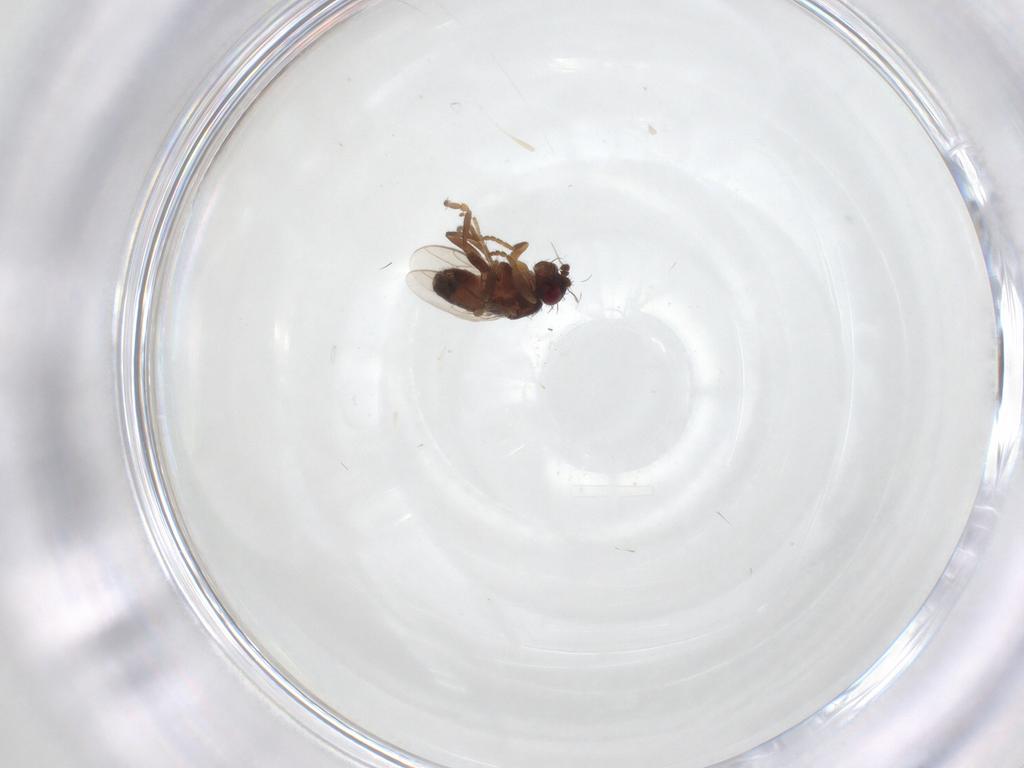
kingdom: Animalia
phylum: Arthropoda
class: Insecta
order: Diptera
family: Sphaeroceridae
